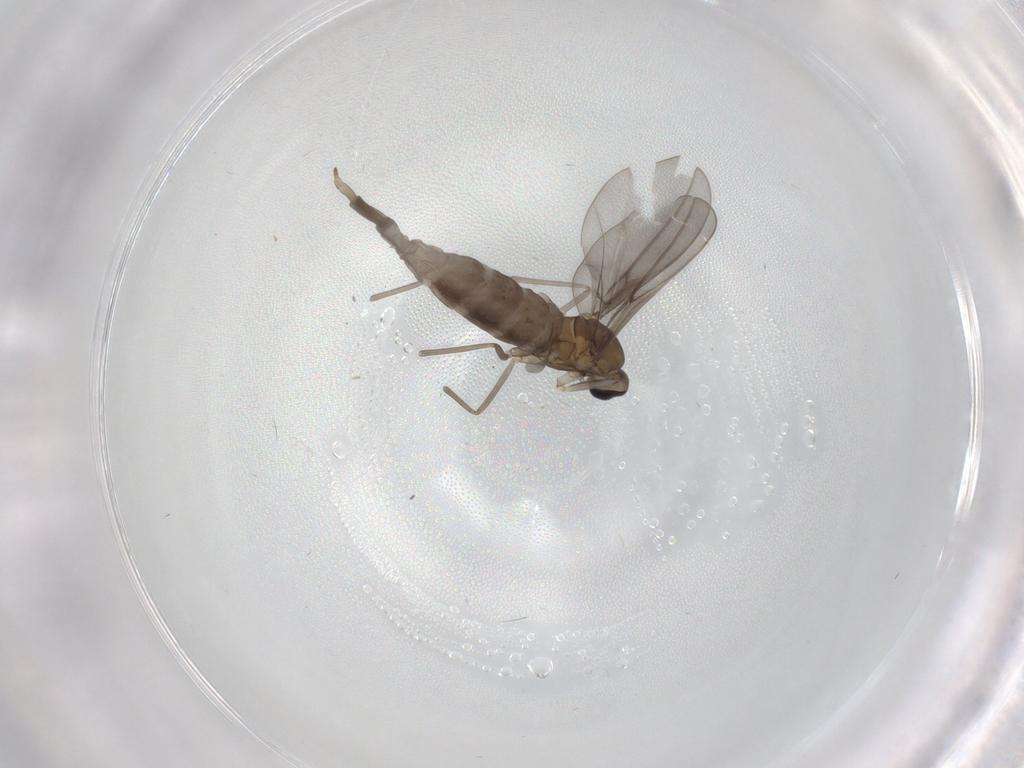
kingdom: Animalia
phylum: Arthropoda
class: Insecta
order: Diptera
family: Cecidomyiidae
